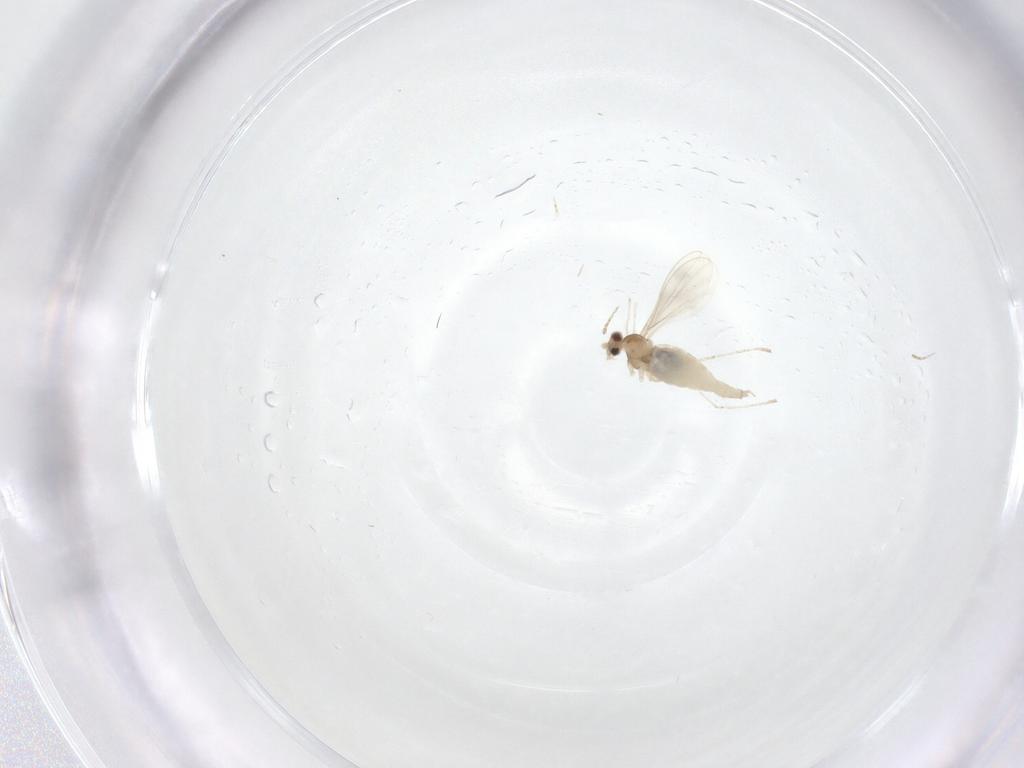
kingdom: Animalia
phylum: Arthropoda
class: Insecta
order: Diptera
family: Cecidomyiidae
